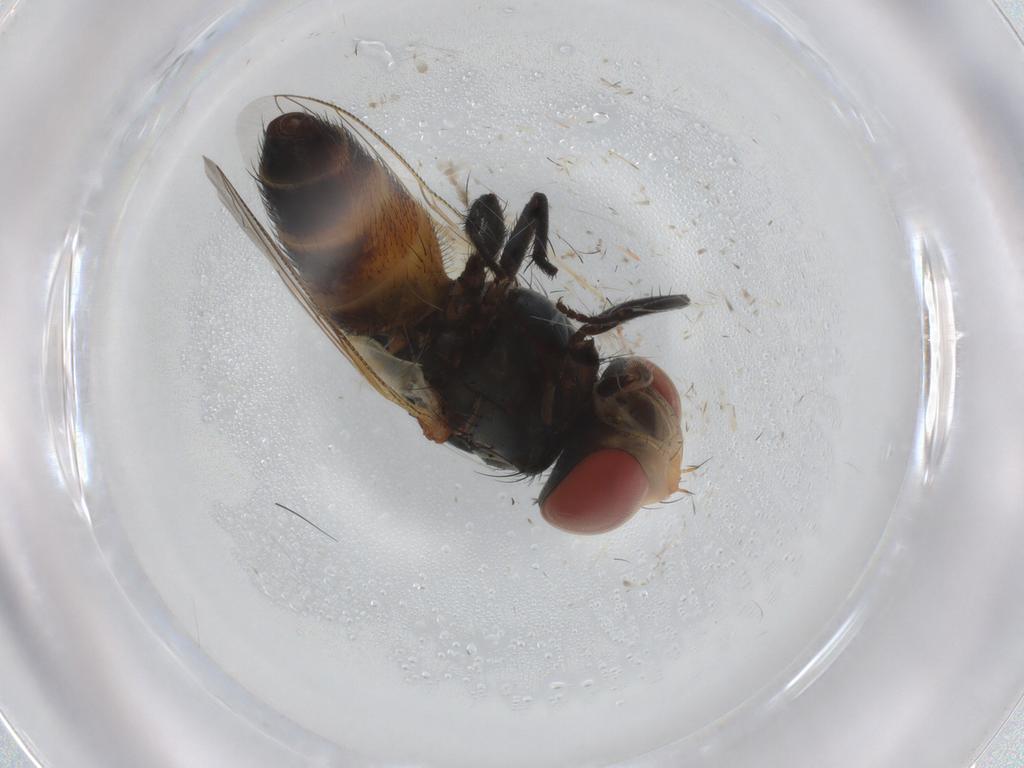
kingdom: Animalia
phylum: Arthropoda
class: Insecta
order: Diptera
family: Sarcophagidae
